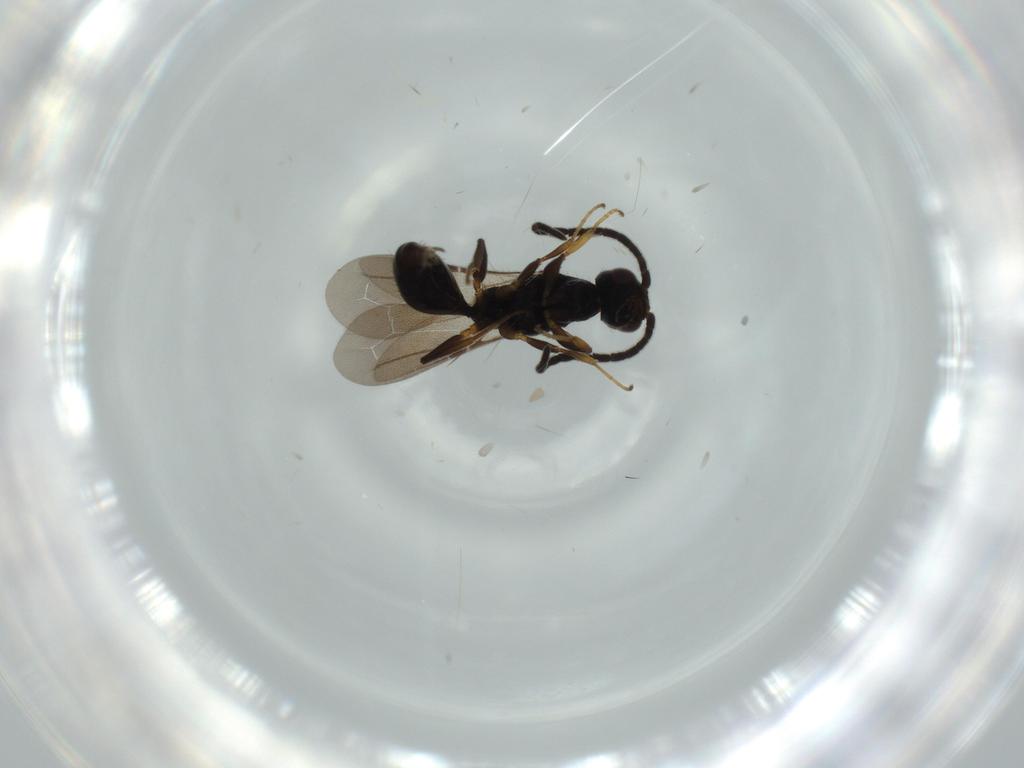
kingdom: Animalia
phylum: Arthropoda
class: Insecta
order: Hymenoptera
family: Bethylidae
